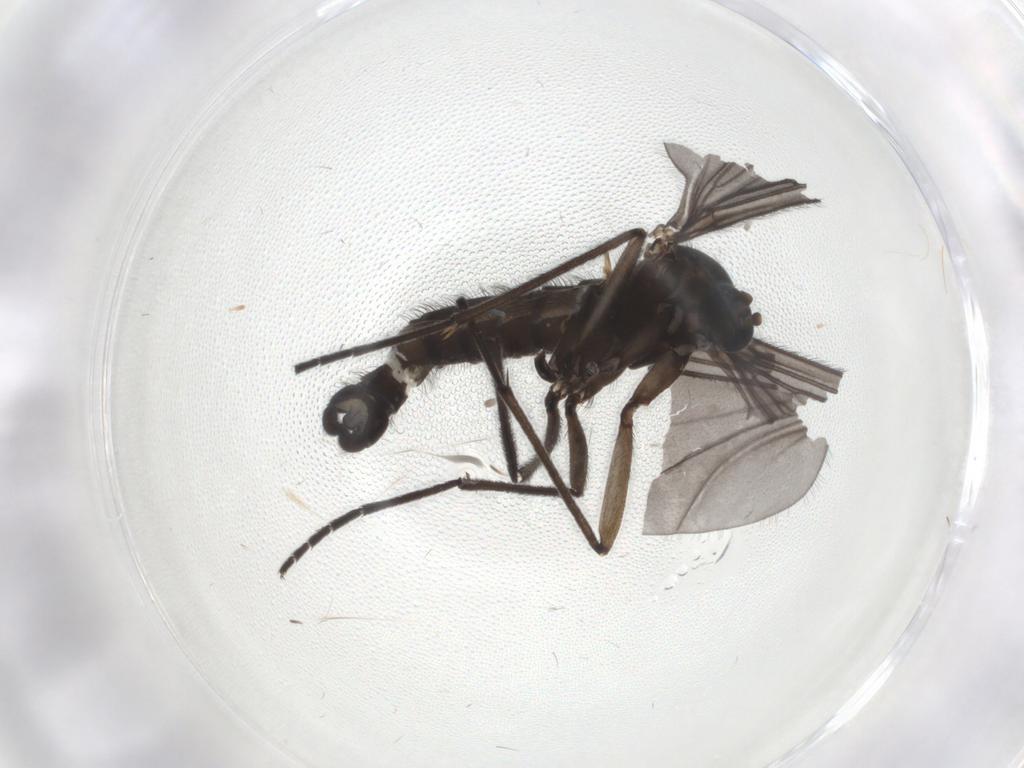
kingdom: Animalia
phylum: Arthropoda
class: Insecta
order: Diptera
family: Sciaridae
